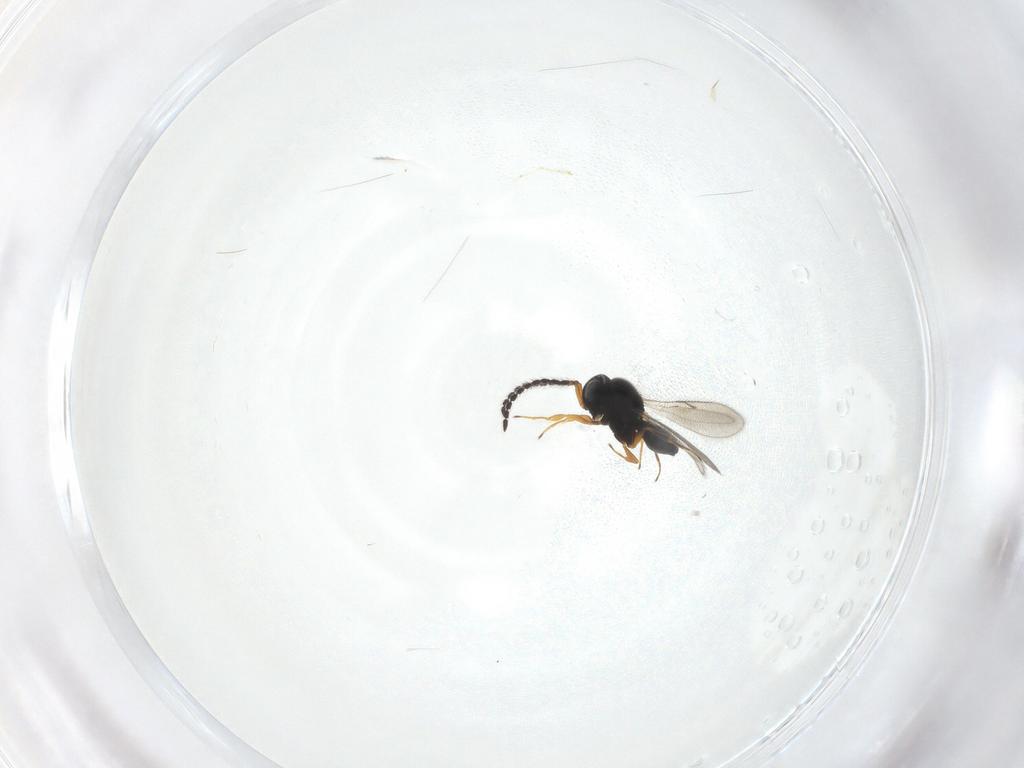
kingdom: Animalia
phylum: Arthropoda
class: Insecta
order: Hymenoptera
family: Scelionidae
